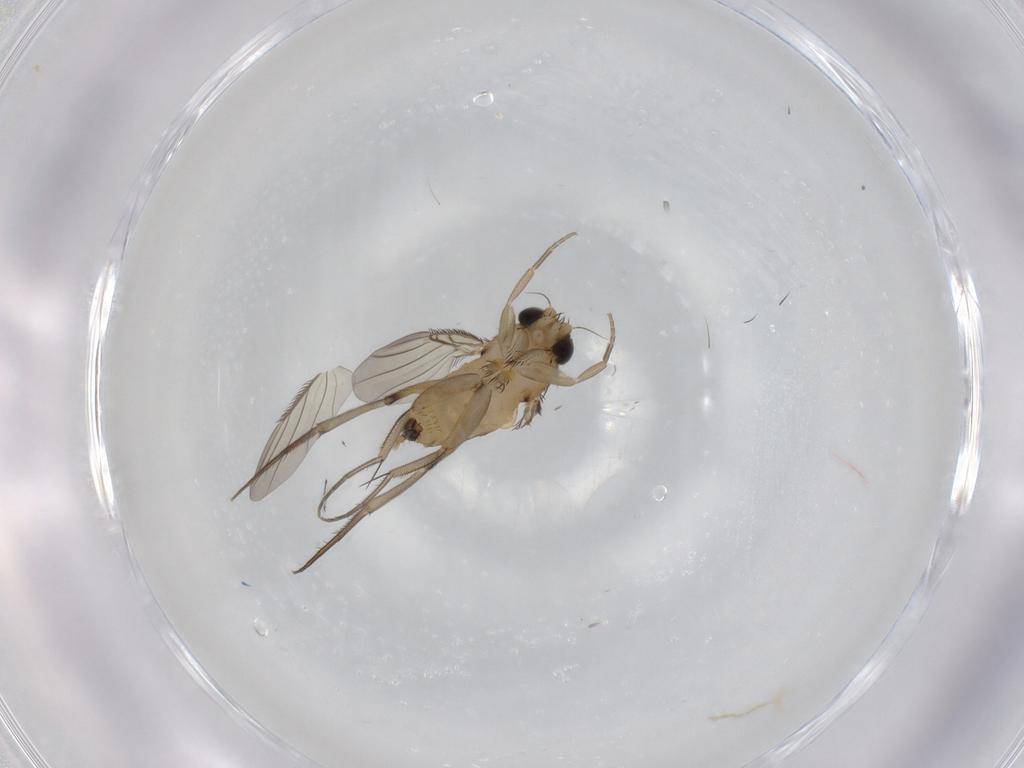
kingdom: Animalia
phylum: Arthropoda
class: Insecta
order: Diptera
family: Phoridae
